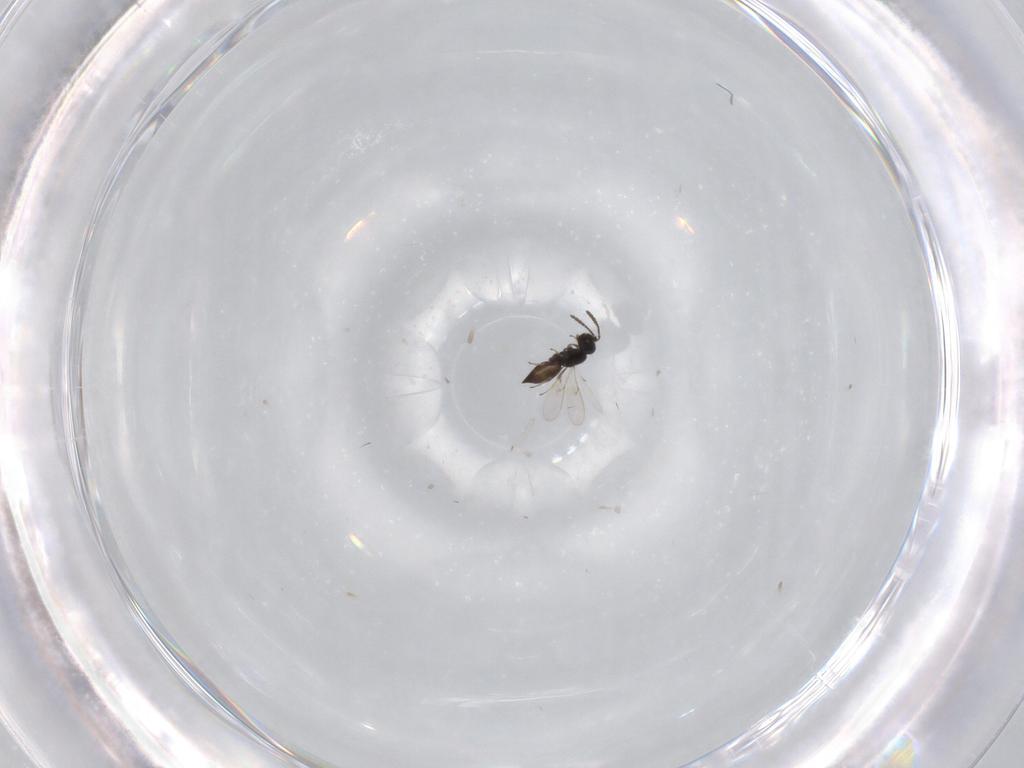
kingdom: Animalia
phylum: Arthropoda
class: Insecta
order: Hymenoptera
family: Scelionidae
